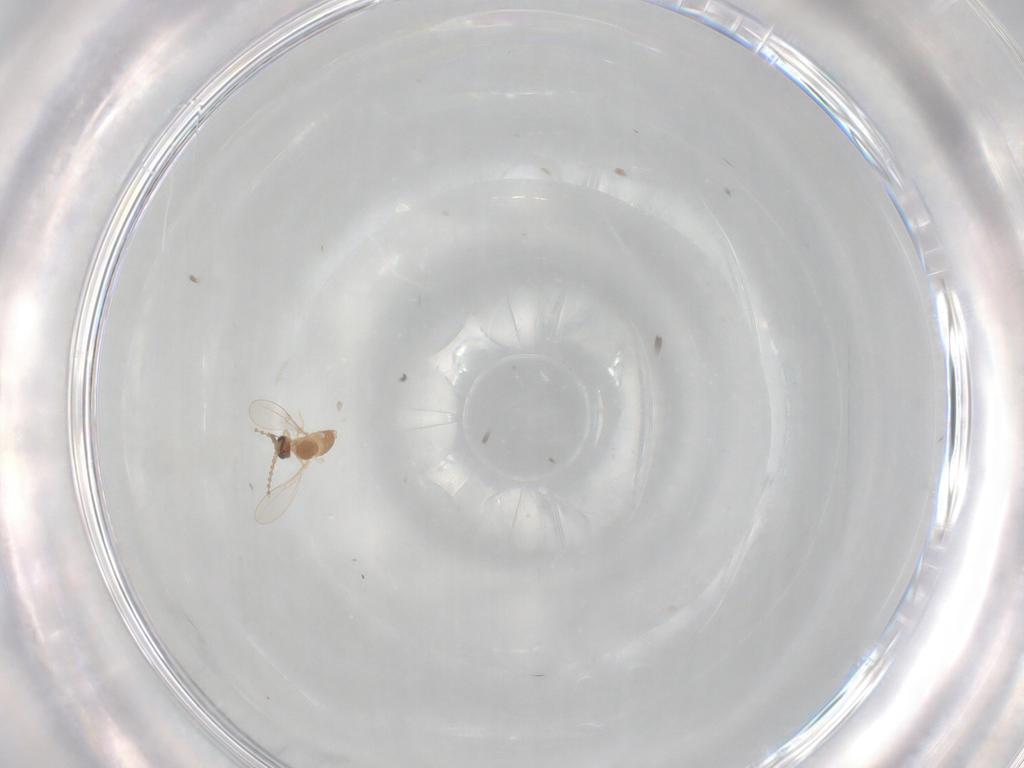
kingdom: Animalia
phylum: Arthropoda
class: Insecta
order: Diptera
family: Cecidomyiidae
